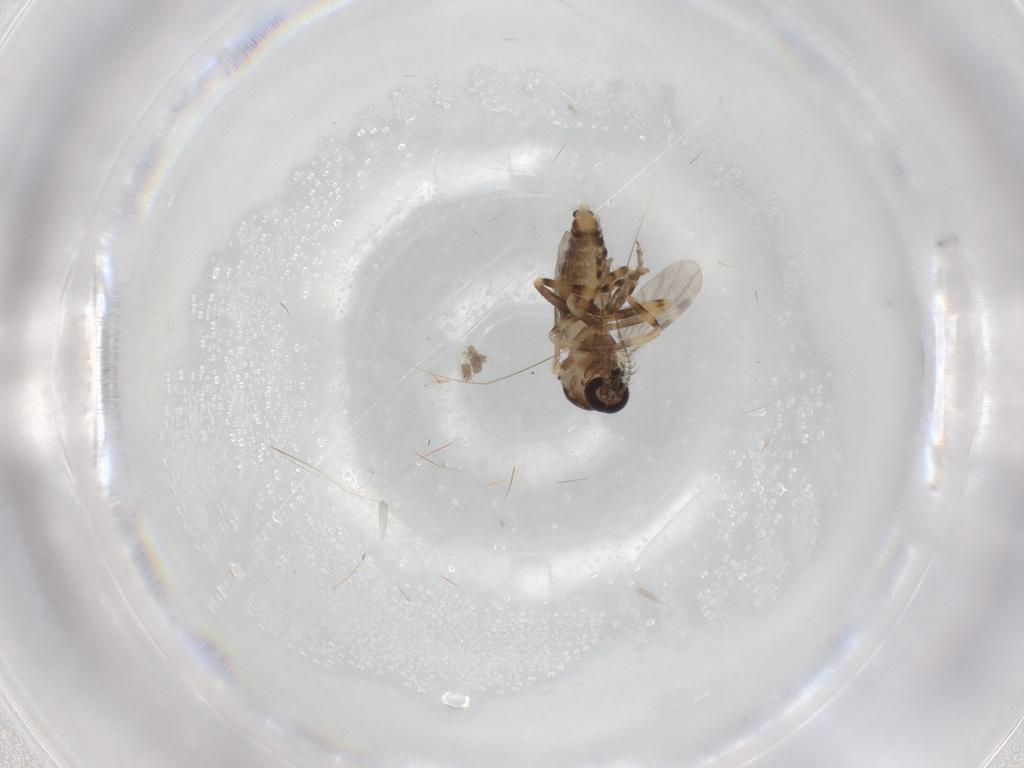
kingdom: Animalia
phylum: Arthropoda
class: Insecta
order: Diptera
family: Ceratopogonidae
